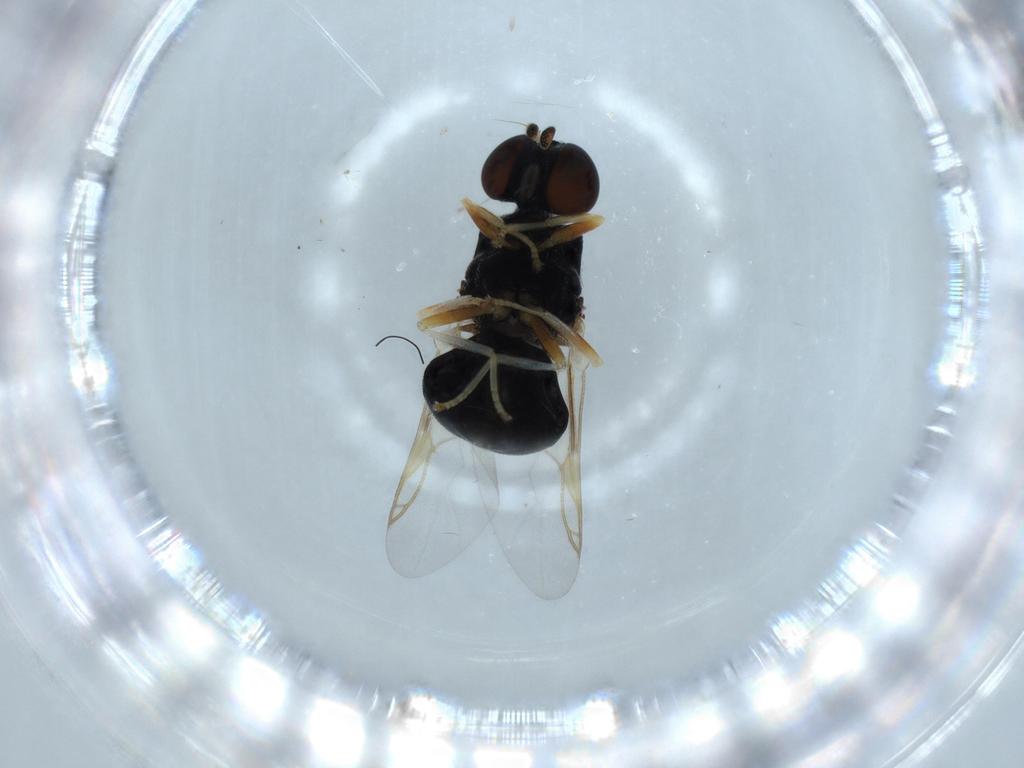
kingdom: Animalia
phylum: Arthropoda
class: Insecta
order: Diptera
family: Stratiomyidae
